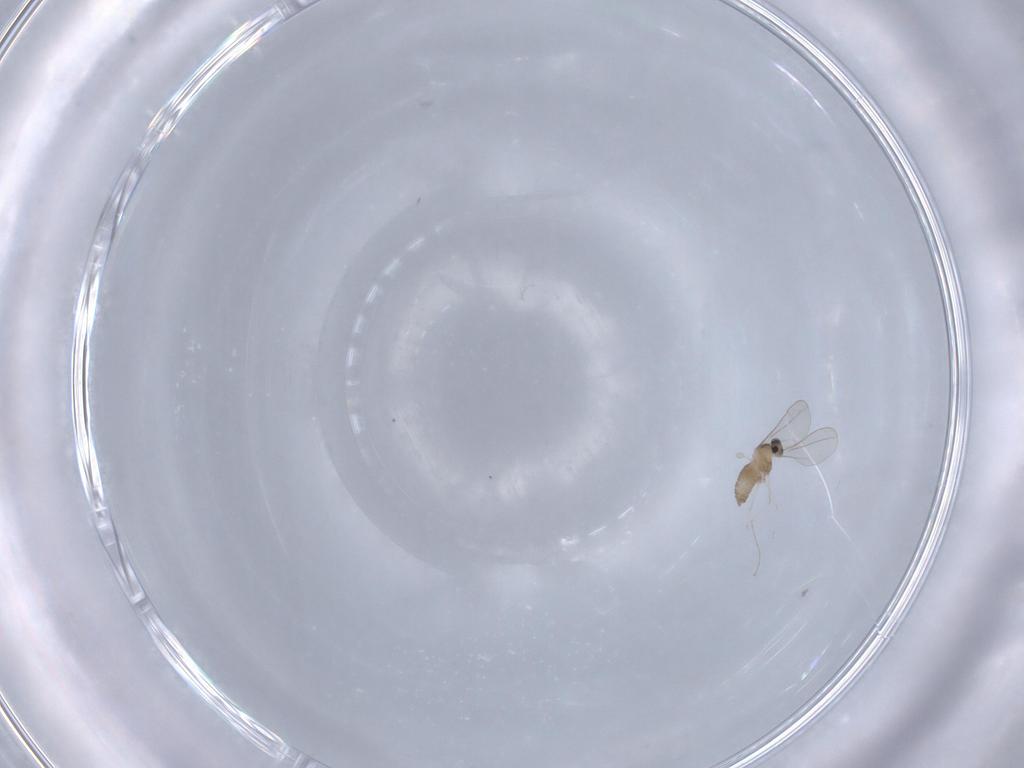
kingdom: Animalia
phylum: Arthropoda
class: Insecta
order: Diptera
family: Cecidomyiidae
